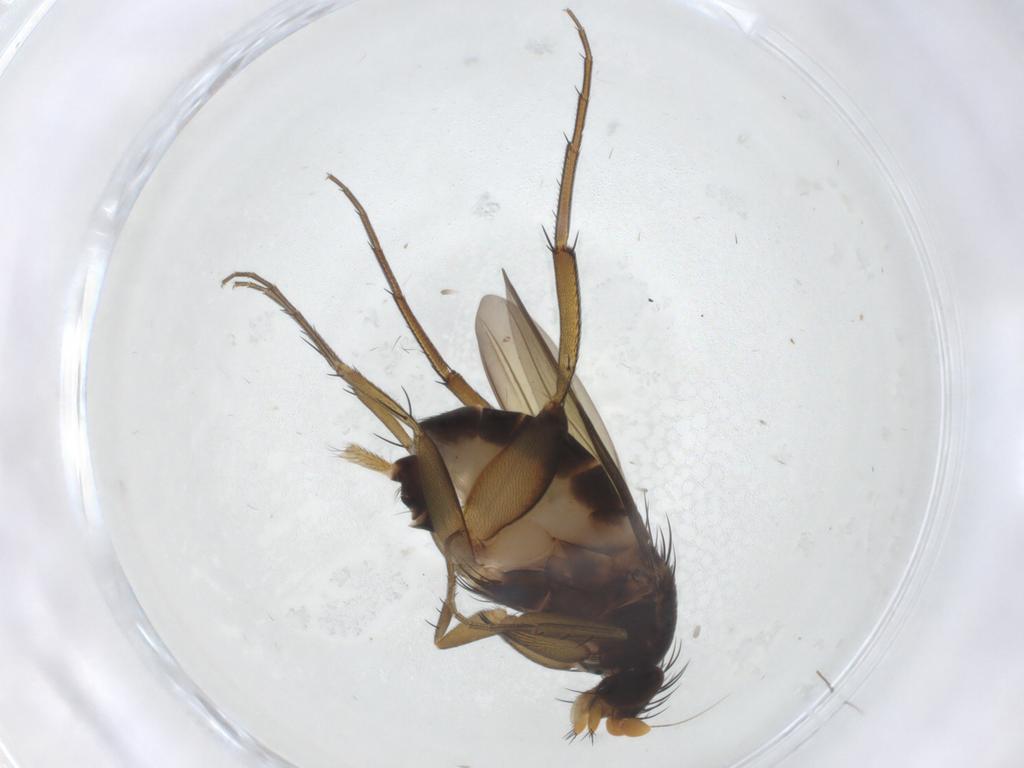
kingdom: Animalia
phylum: Arthropoda
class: Insecta
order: Diptera
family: Phoridae
